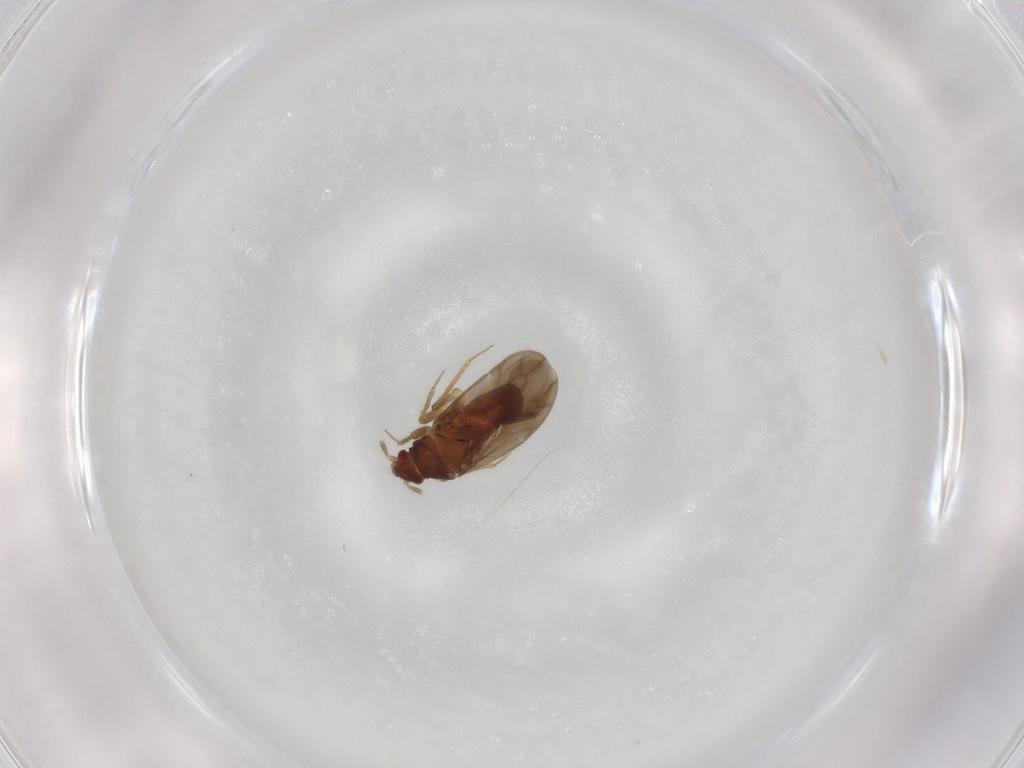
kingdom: Animalia
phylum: Arthropoda
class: Insecta
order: Hemiptera
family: Ceratocombidae
